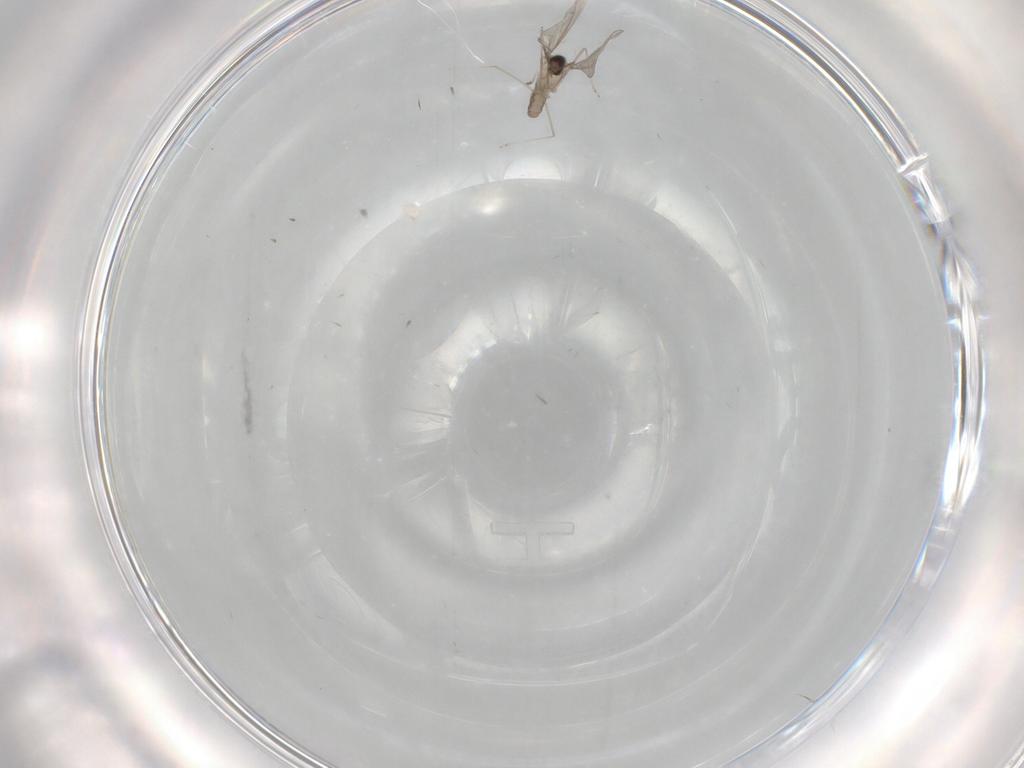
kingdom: Animalia
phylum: Arthropoda
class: Insecta
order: Diptera
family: Cecidomyiidae
